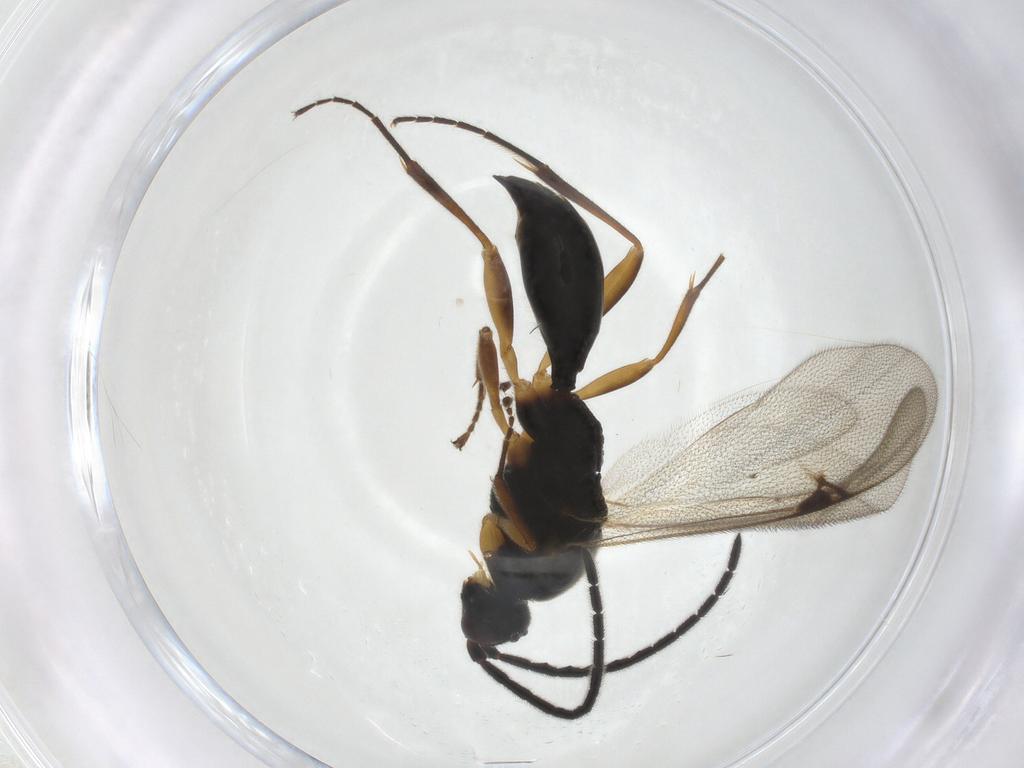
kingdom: Animalia
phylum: Arthropoda
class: Insecta
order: Hymenoptera
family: Proctotrupidae
